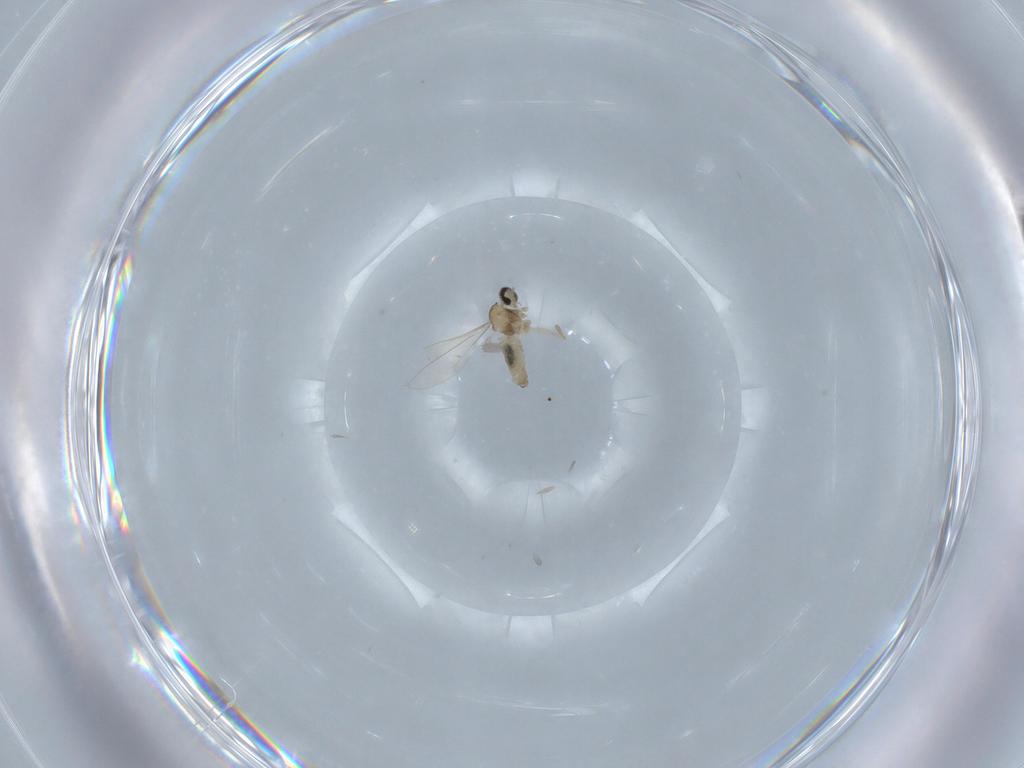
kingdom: Animalia
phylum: Arthropoda
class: Insecta
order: Diptera
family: Cecidomyiidae
